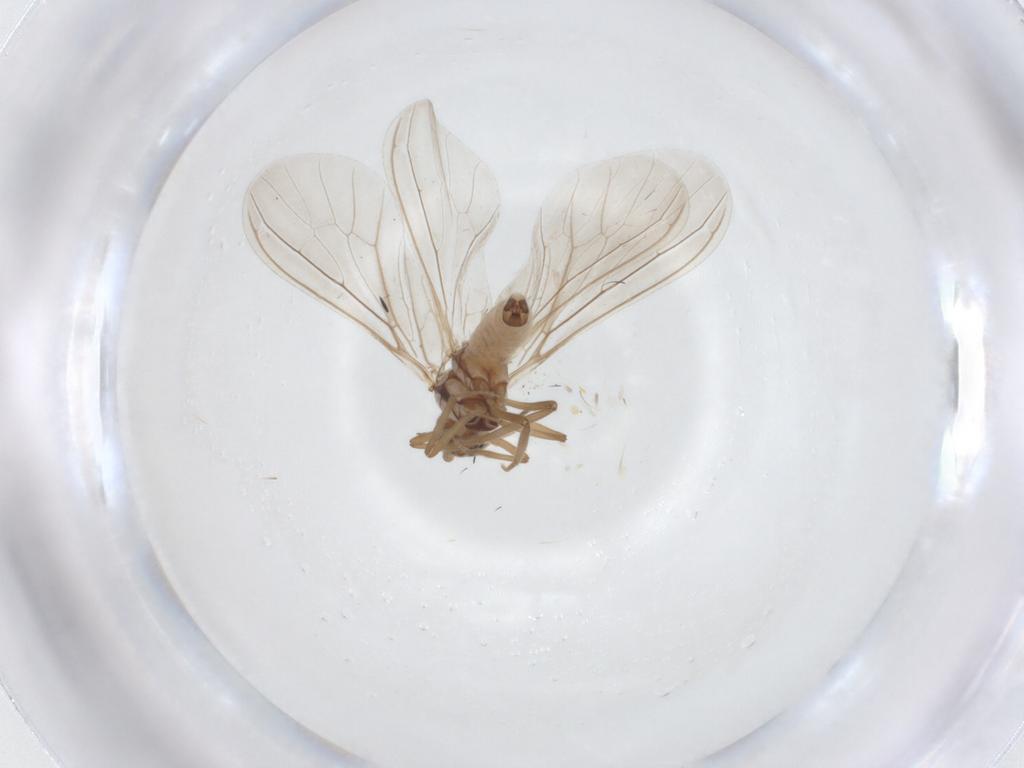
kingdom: Animalia
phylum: Arthropoda
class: Insecta
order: Neuroptera
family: Coniopterygidae
